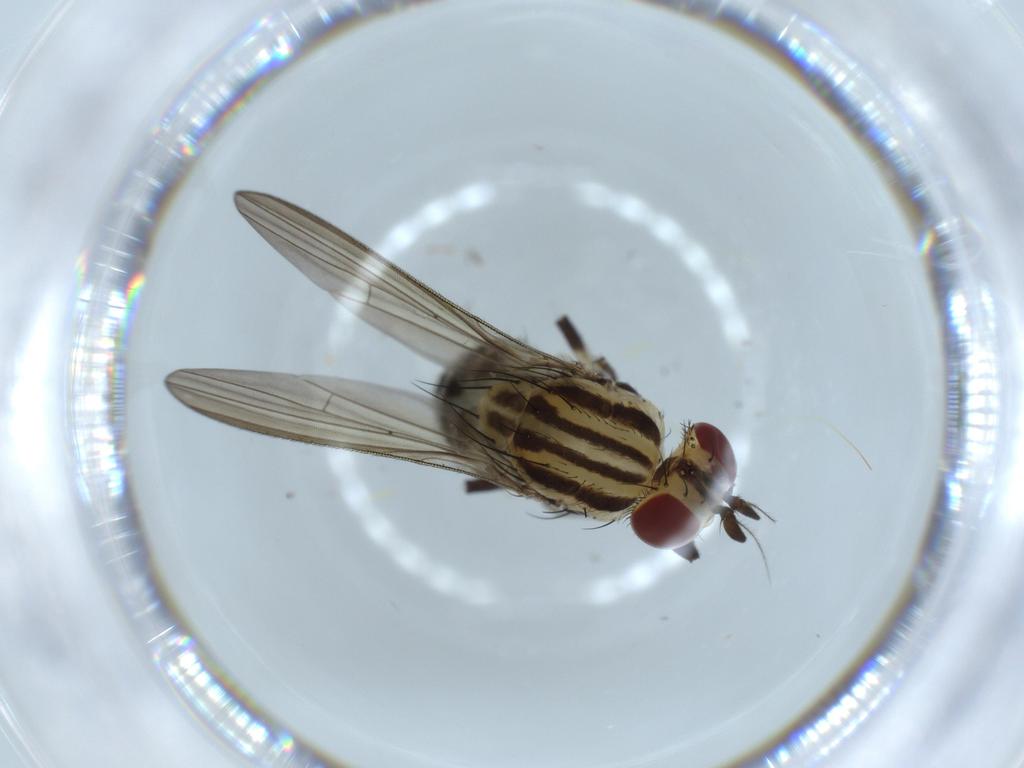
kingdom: Animalia
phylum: Arthropoda
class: Insecta
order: Diptera
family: Lauxaniidae
